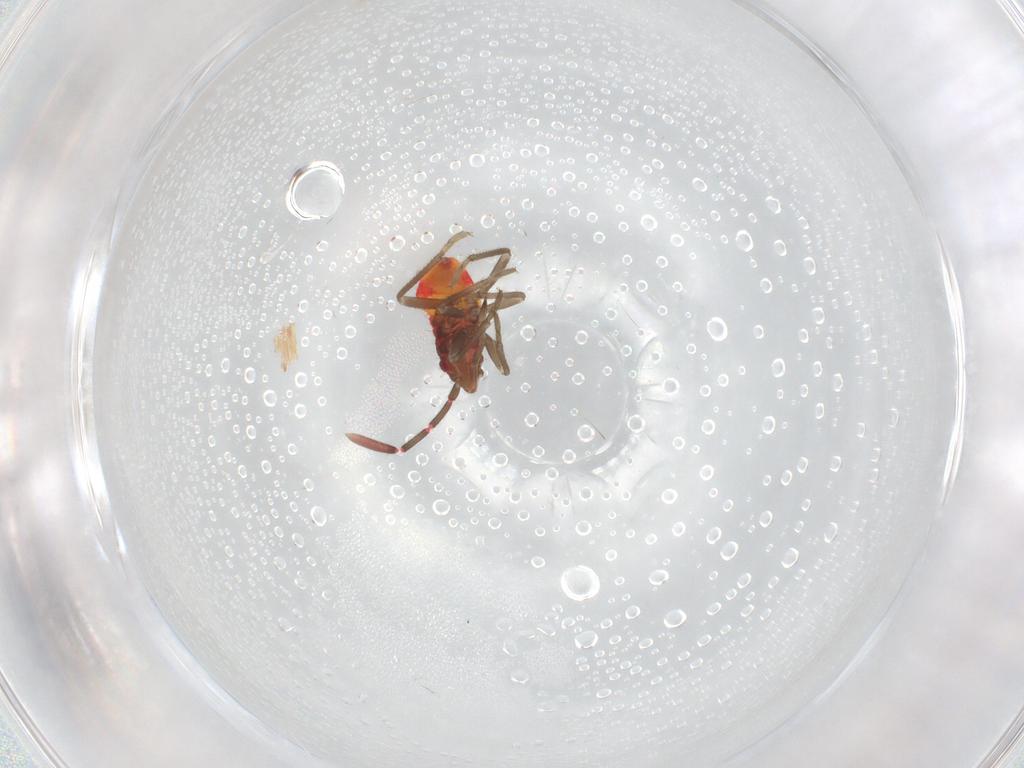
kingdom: Animalia
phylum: Arthropoda
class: Insecta
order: Hemiptera
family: Rhyparochromidae
